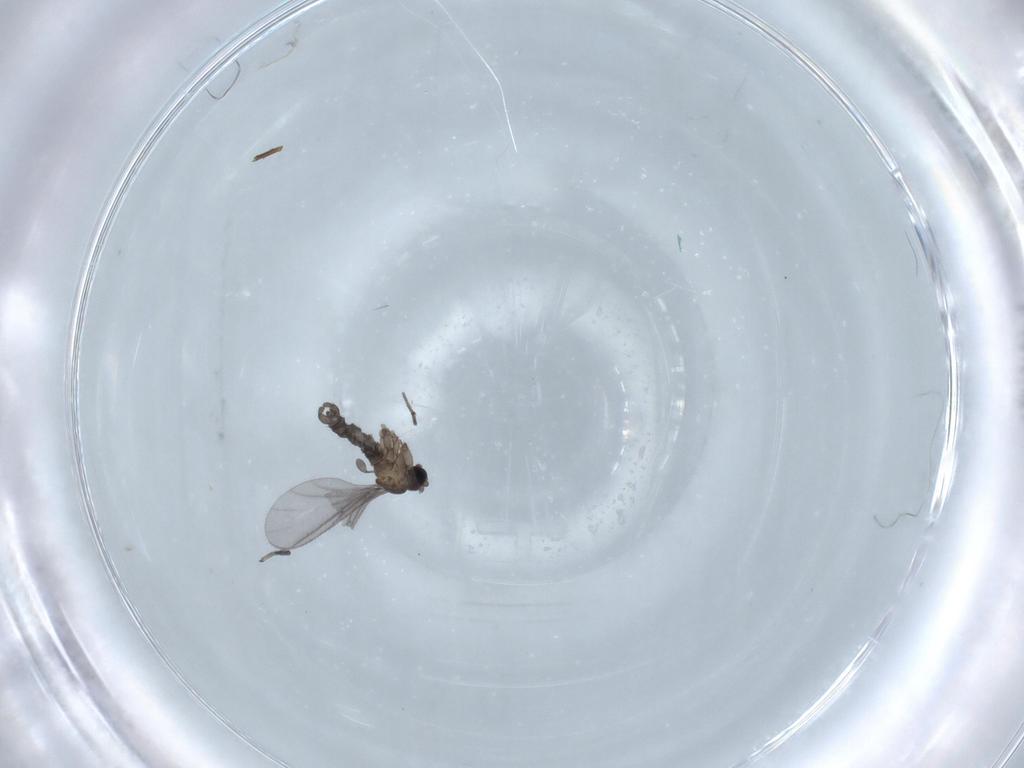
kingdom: Animalia
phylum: Arthropoda
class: Insecta
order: Diptera
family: Sciaridae
